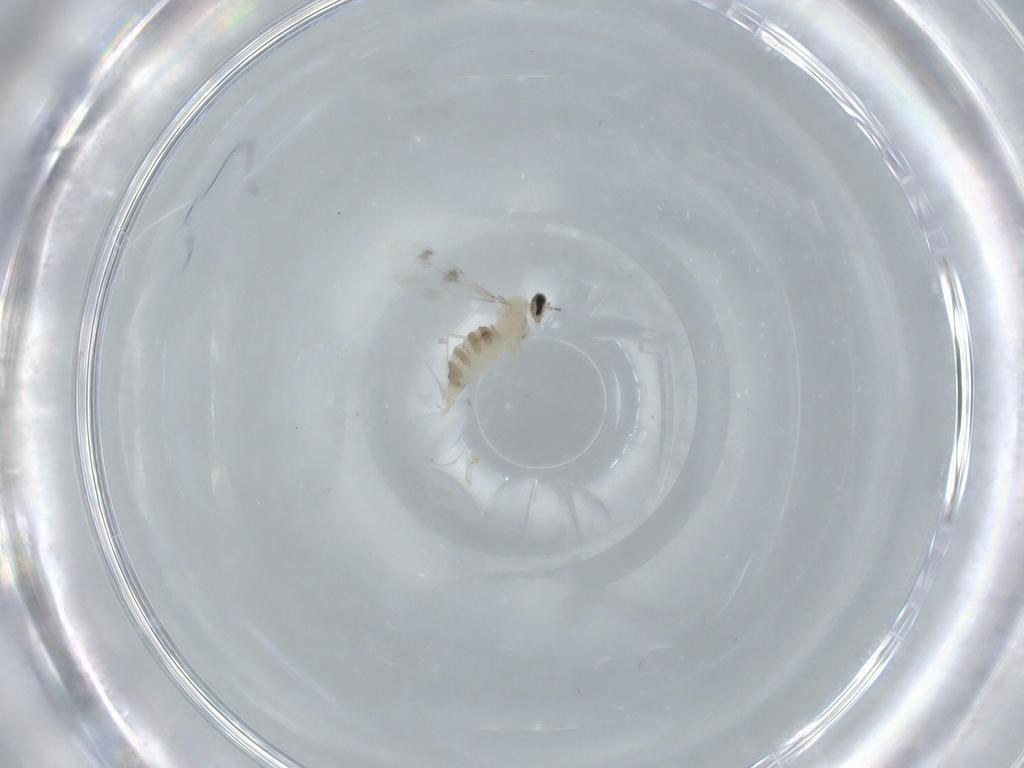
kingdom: Animalia
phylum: Arthropoda
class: Insecta
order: Diptera
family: Cecidomyiidae
